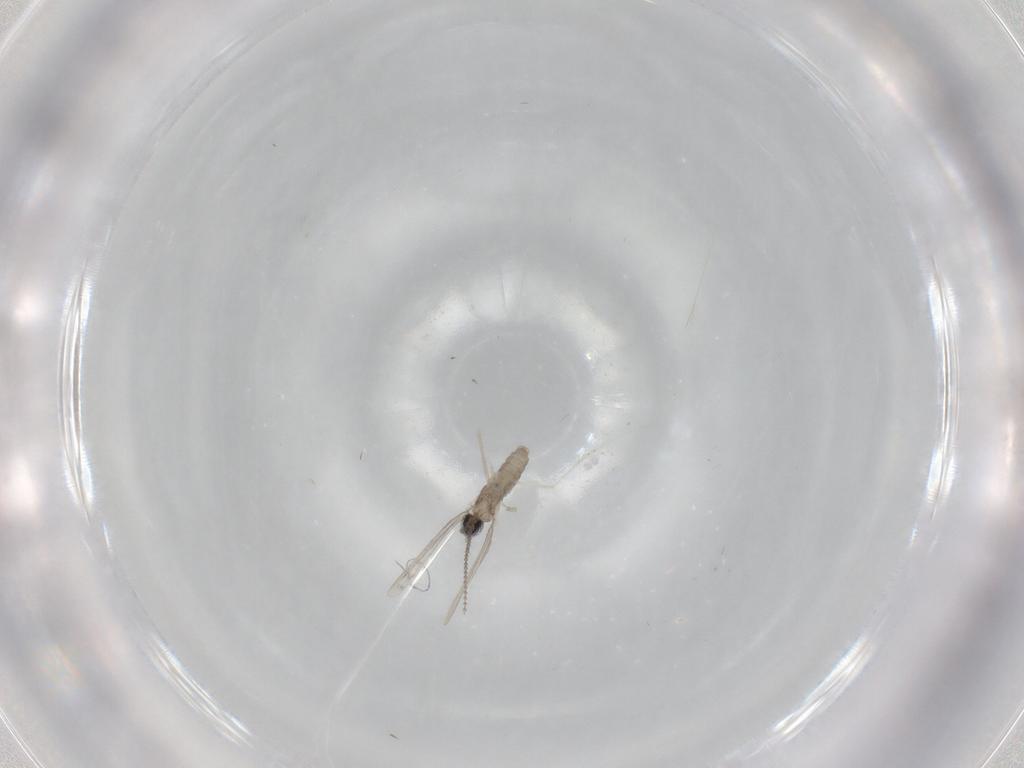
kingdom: Animalia
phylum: Arthropoda
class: Insecta
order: Diptera
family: Cecidomyiidae
